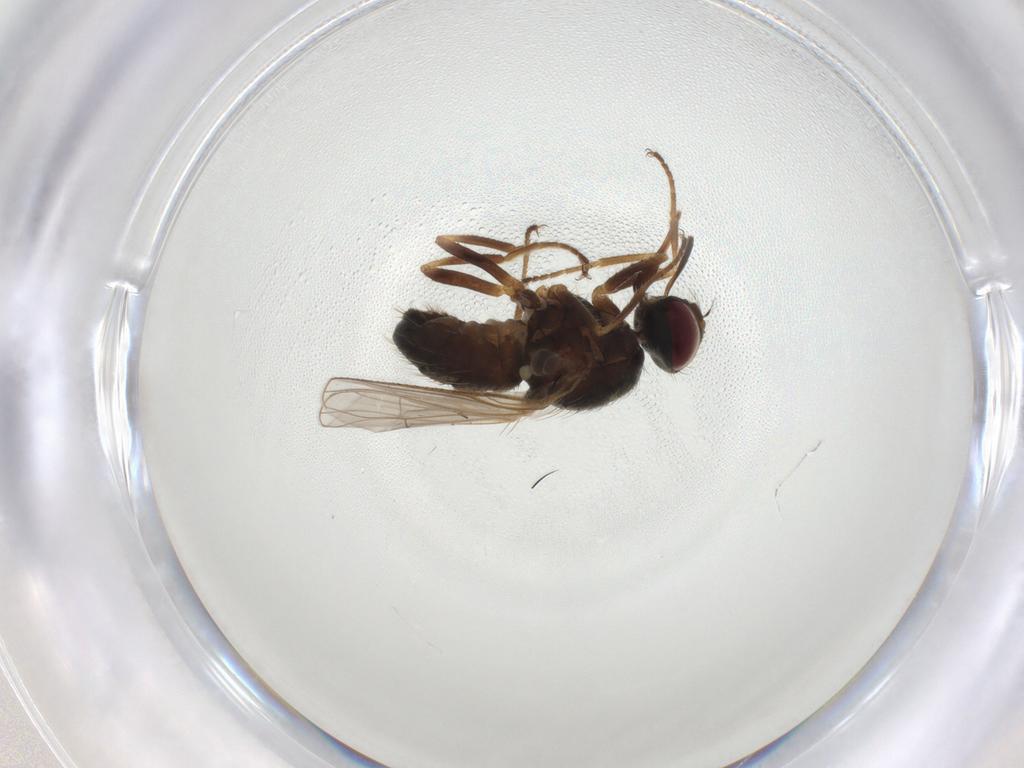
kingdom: Animalia
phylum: Arthropoda
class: Insecta
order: Diptera
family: Muscidae
